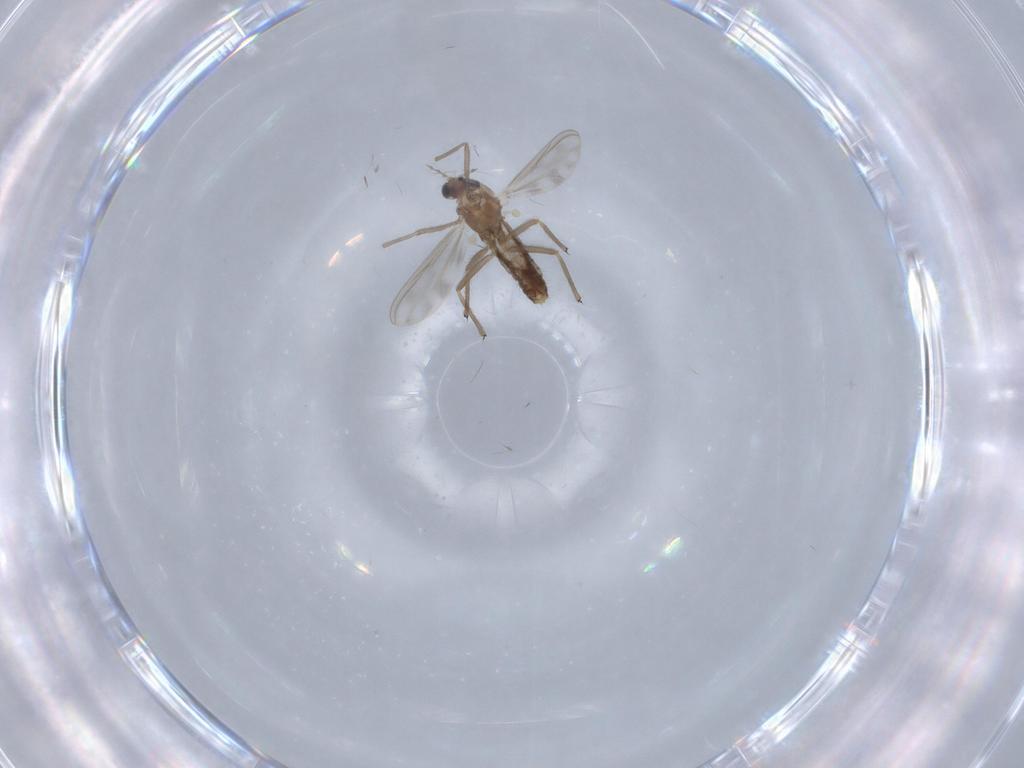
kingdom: Animalia
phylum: Arthropoda
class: Insecta
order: Diptera
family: Chironomidae
